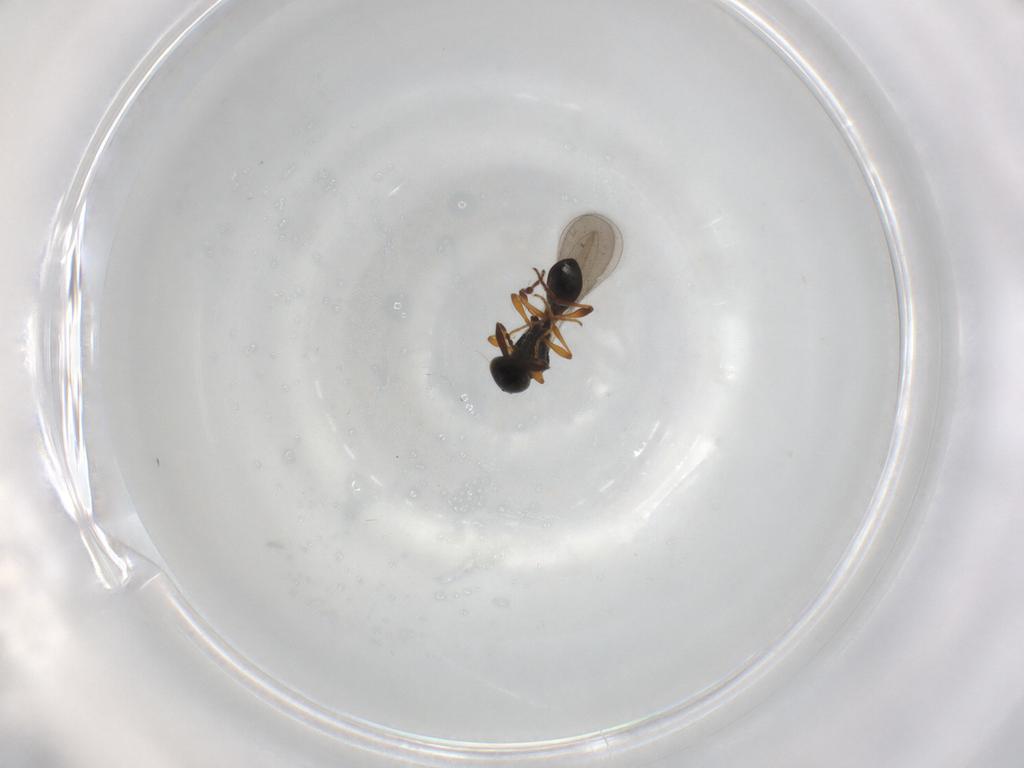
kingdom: Animalia
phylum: Arthropoda
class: Insecta
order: Hymenoptera
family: Platygastridae
